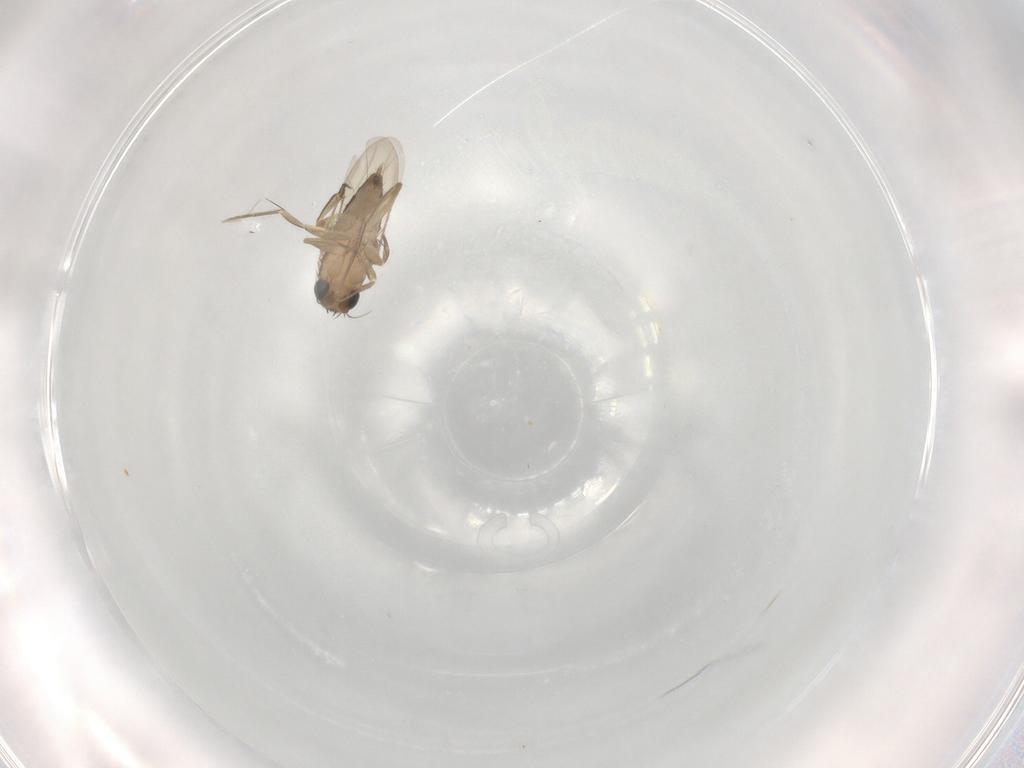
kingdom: Animalia
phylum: Arthropoda
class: Insecta
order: Diptera
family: Phoridae
